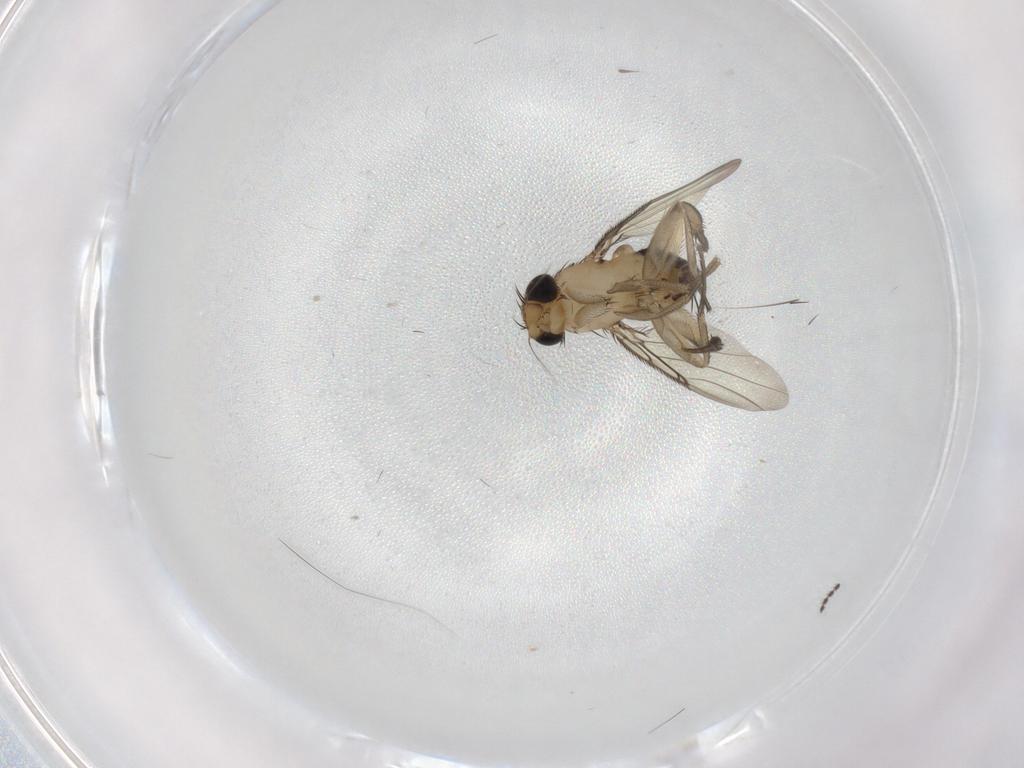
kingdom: Animalia
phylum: Arthropoda
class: Insecta
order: Diptera
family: Phoridae
